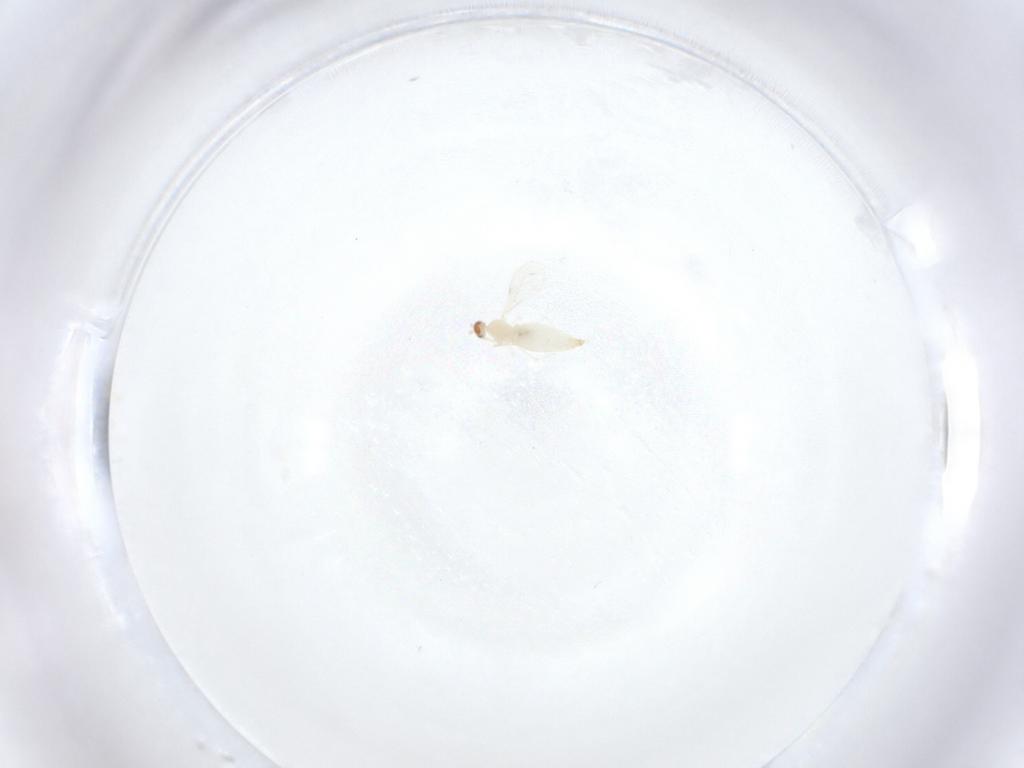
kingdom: Animalia
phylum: Arthropoda
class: Insecta
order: Diptera
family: Cecidomyiidae
